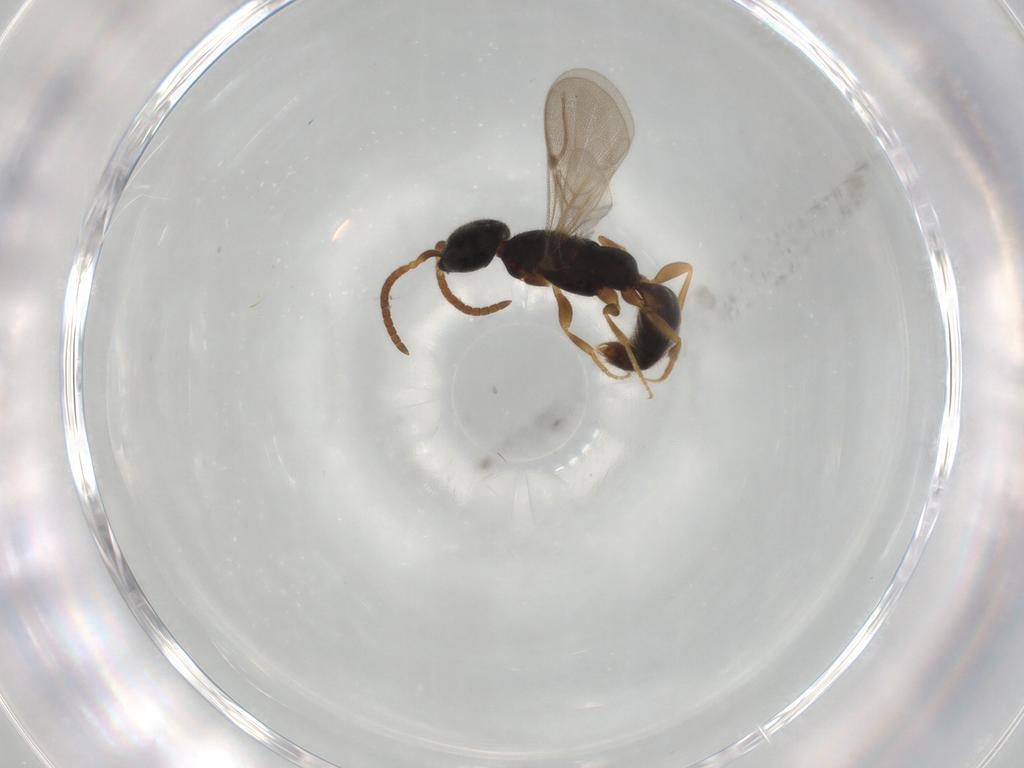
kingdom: Animalia
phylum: Arthropoda
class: Insecta
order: Hymenoptera
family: Bethylidae
